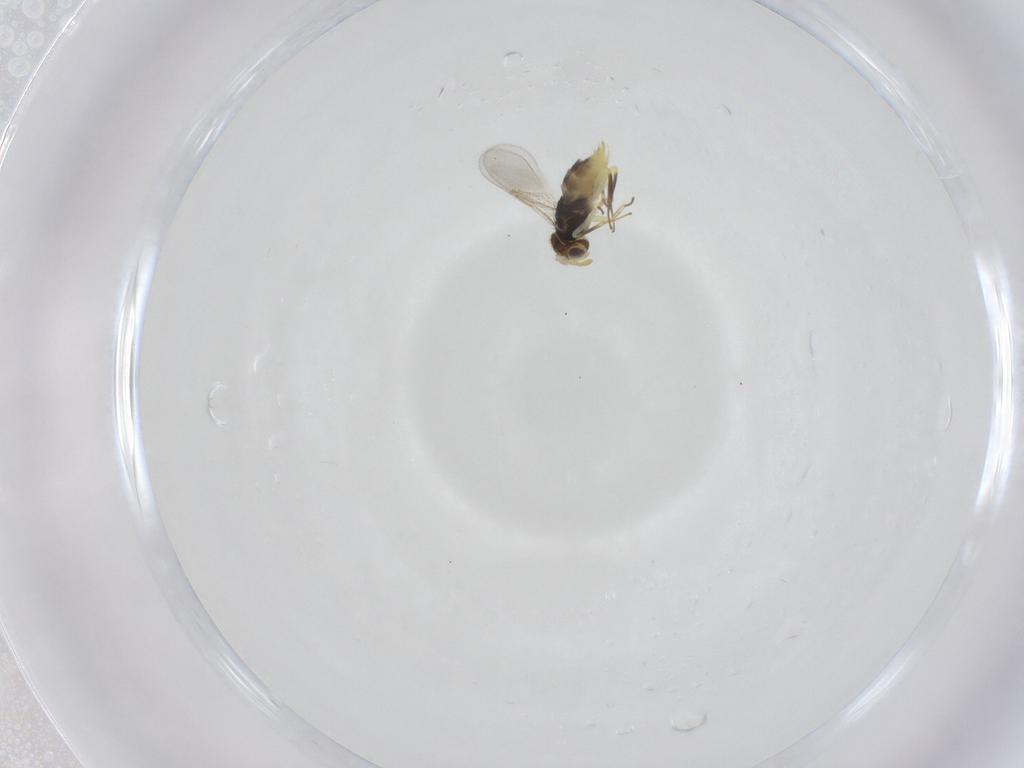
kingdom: Animalia
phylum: Arthropoda
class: Insecta
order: Hymenoptera
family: Aphelinidae
